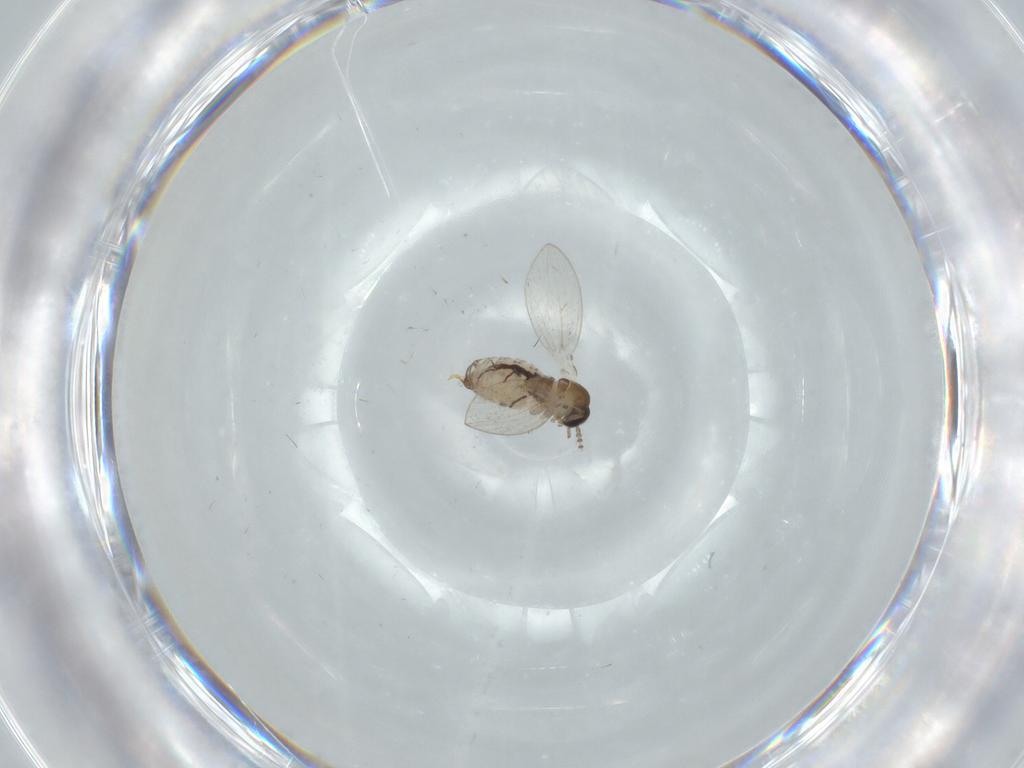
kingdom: Animalia
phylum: Arthropoda
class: Insecta
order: Diptera
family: Psychodidae
